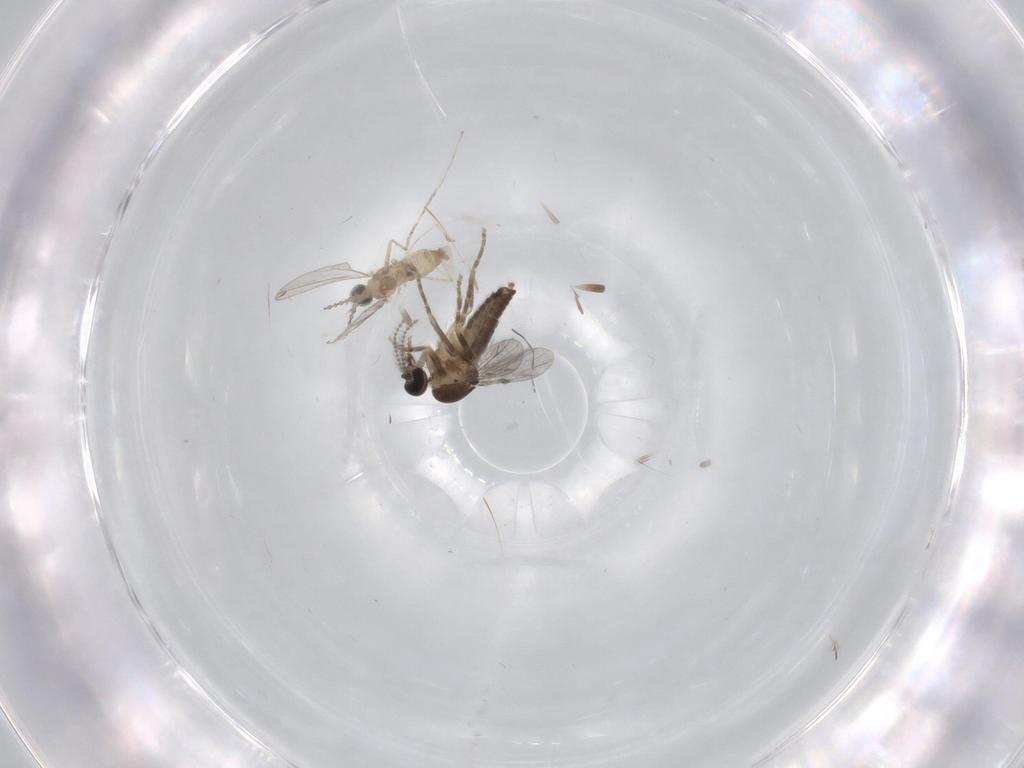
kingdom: Animalia
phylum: Arthropoda
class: Insecta
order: Diptera
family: Ceratopogonidae
